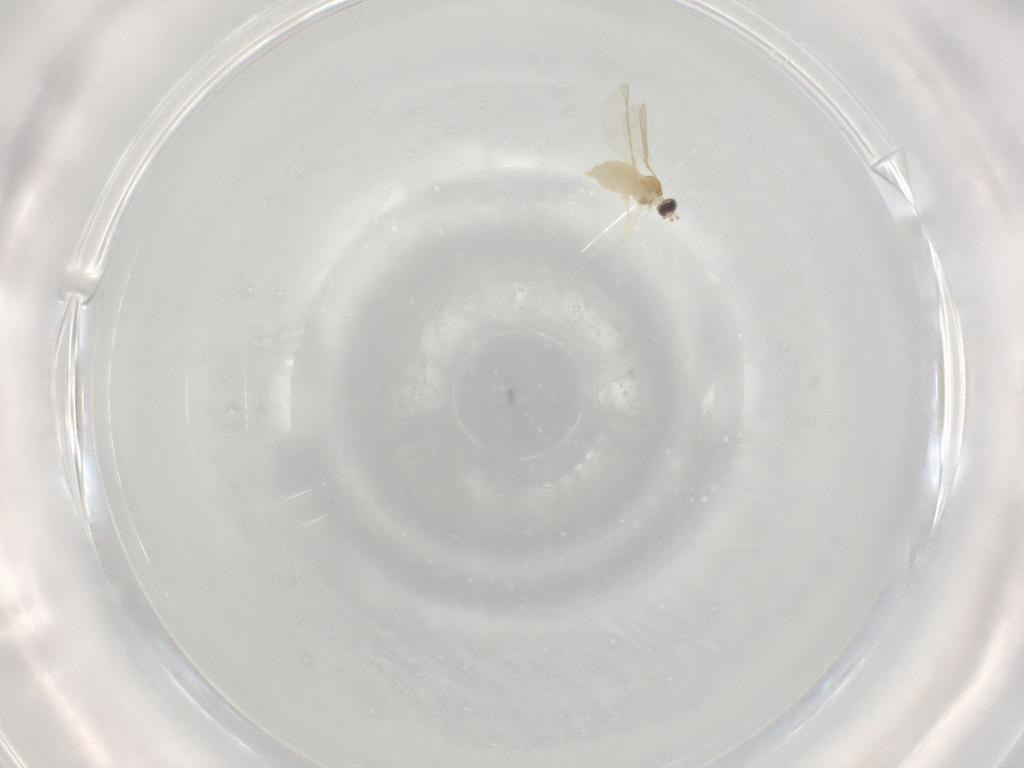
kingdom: Animalia
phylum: Arthropoda
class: Insecta
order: Diptera
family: Cecidomyiidae
